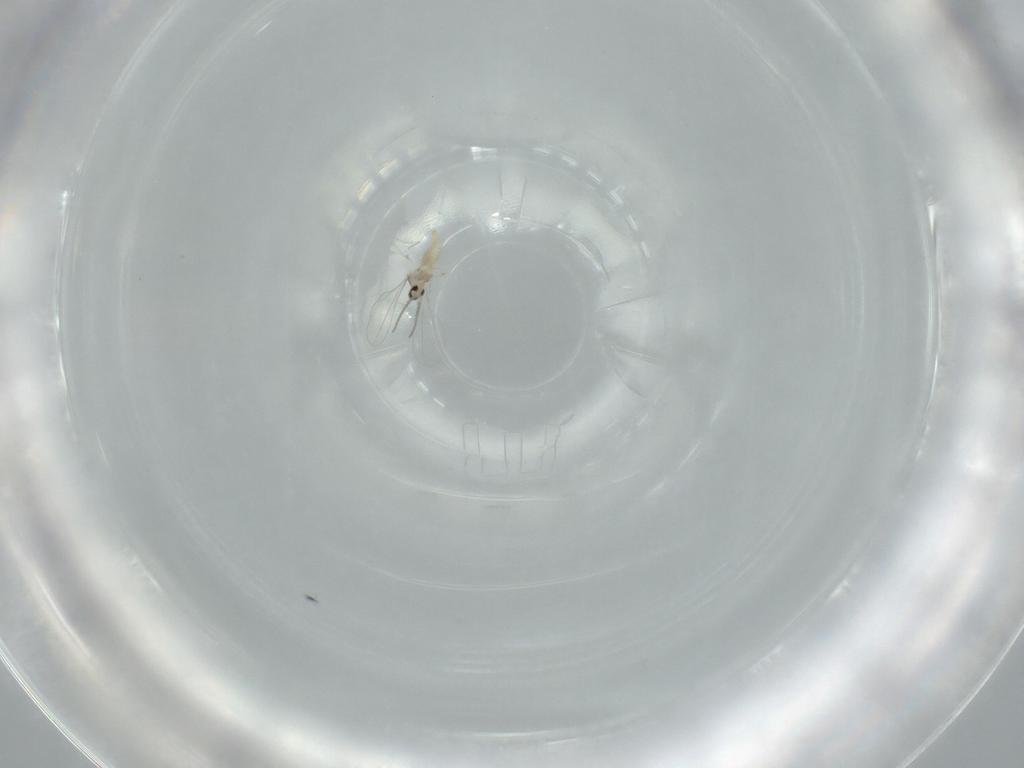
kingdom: Animalia
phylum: Arthropoda
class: Insecta
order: Diptera
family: Cecidomyiidae
